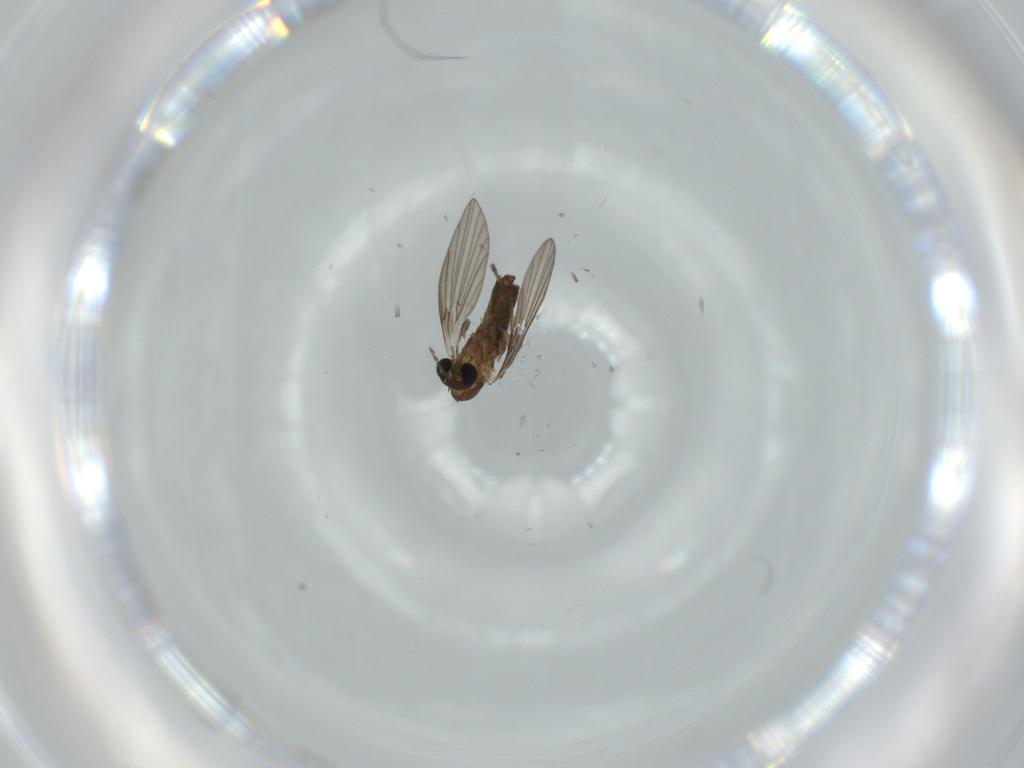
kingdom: Animalia
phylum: Arthropoda
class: Insecta
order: Diptera
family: Psychodidae
